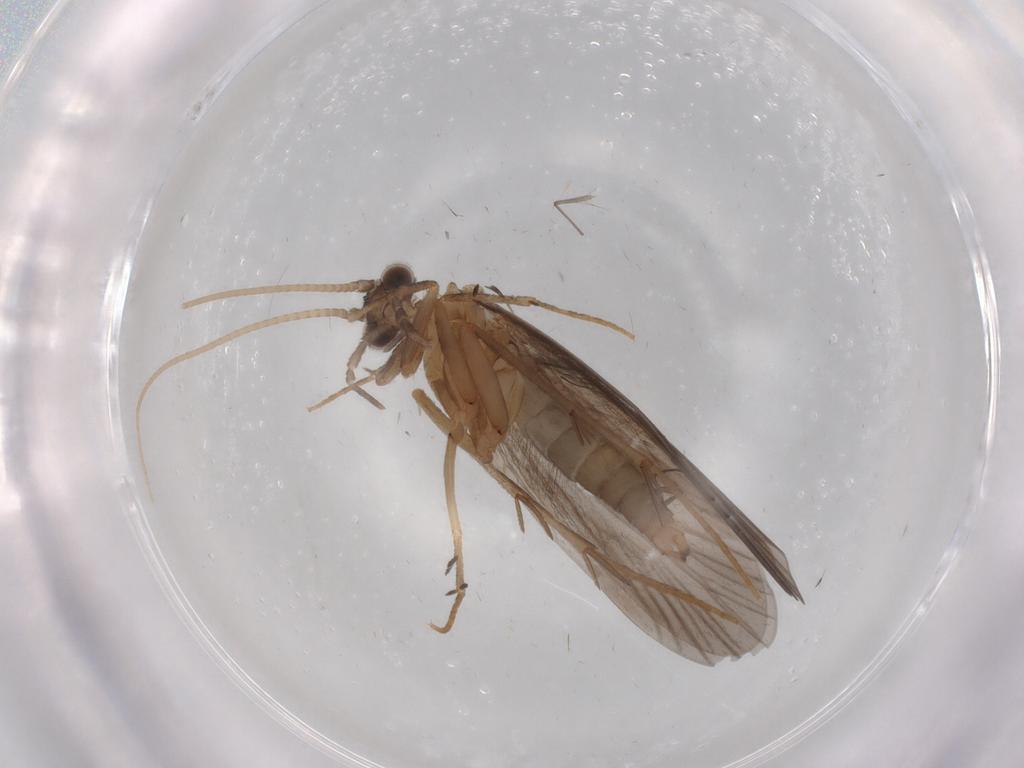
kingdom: Animalia
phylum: Arthropoda
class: Insecta
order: Trichoptera
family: Philopotamidae
